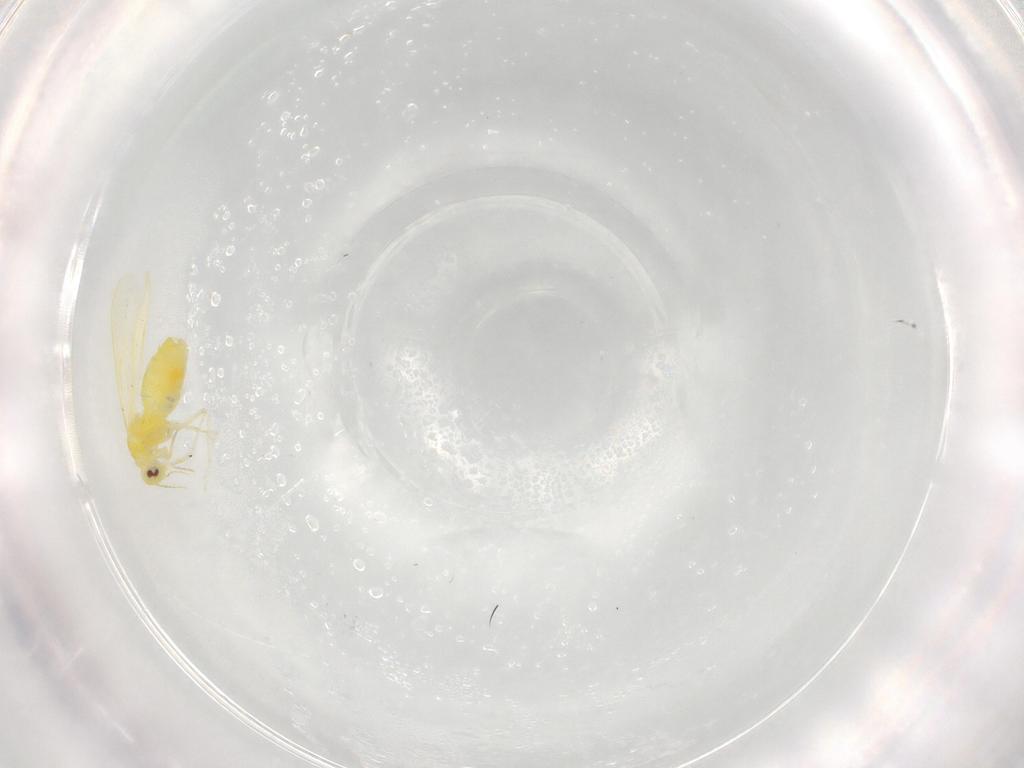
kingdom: Animalia
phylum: Arthropoda
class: Insecta
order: Hemiptera
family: Aleyrodidae
